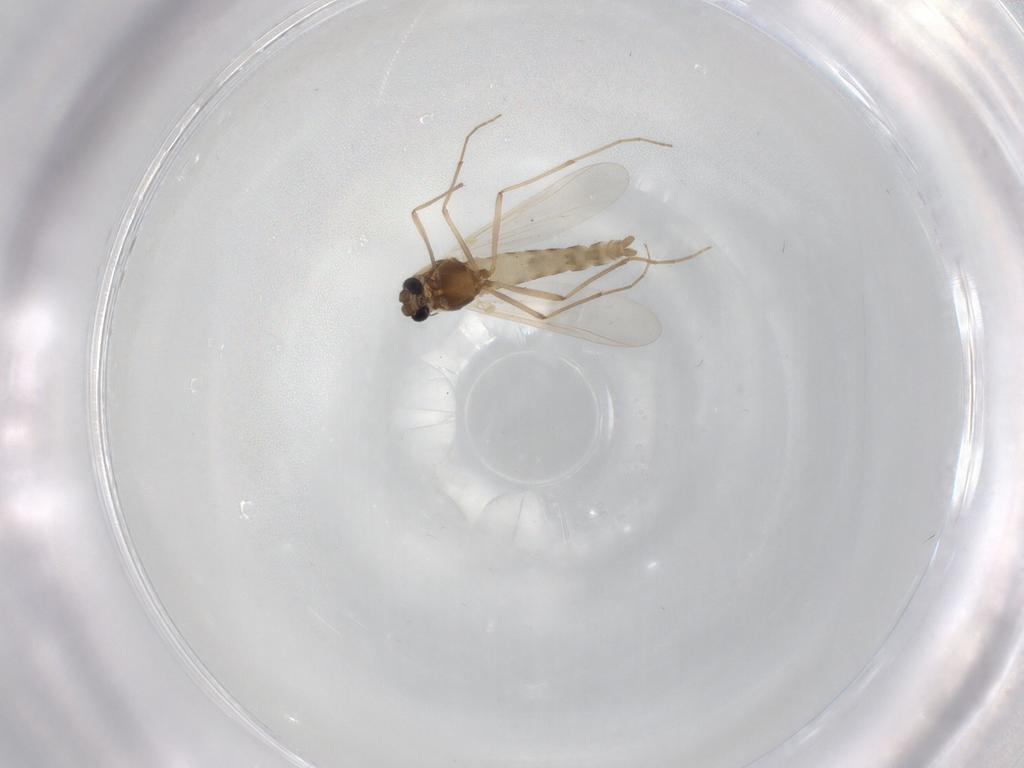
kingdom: Animalia
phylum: Arthropoda
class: Insecta
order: Diptera
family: Chironomidae
